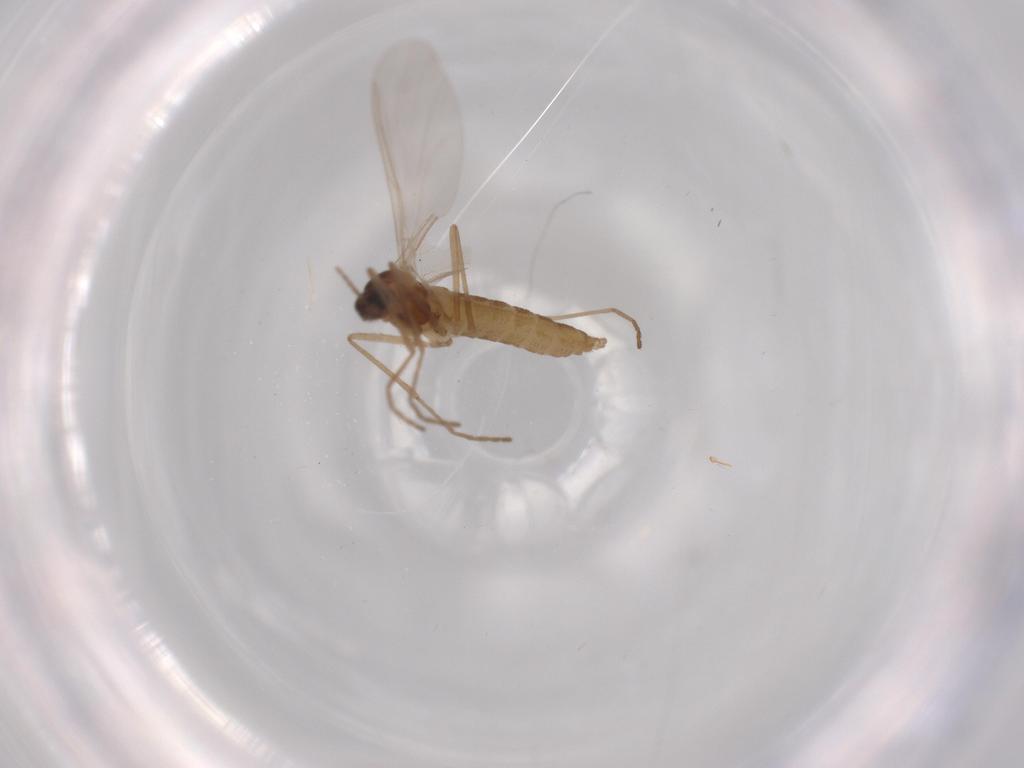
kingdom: Animalia
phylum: Arthropoda
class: Insecta
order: Diptera
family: Cecidomyiidae
